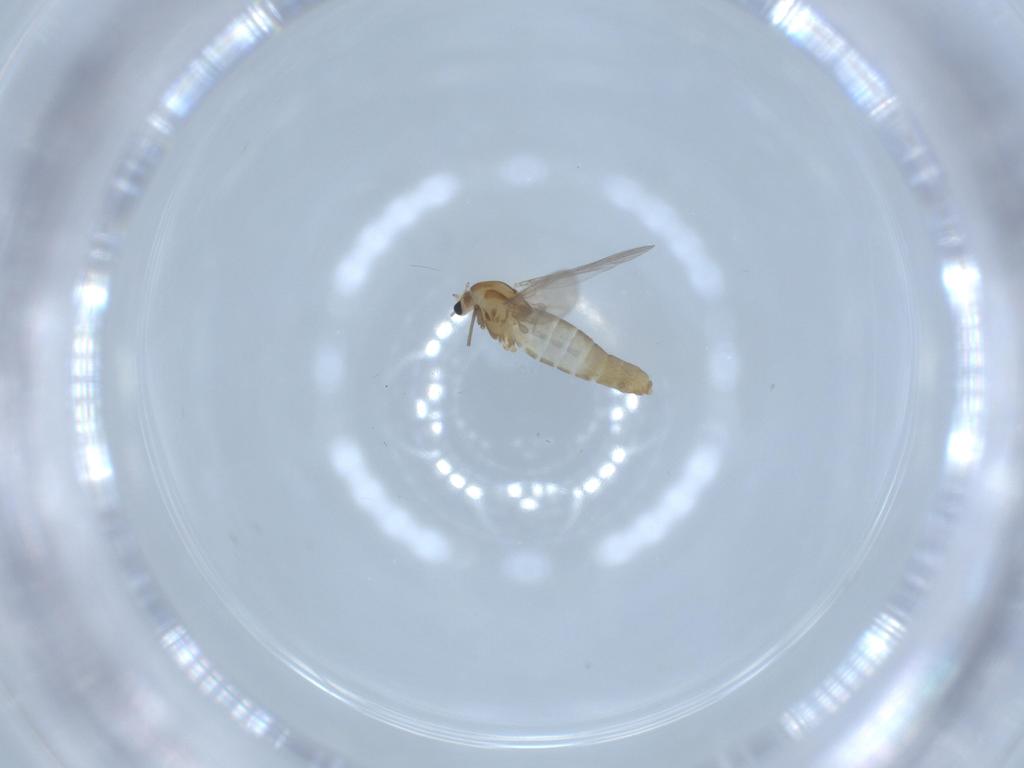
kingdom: Animalia
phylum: Arthropoda
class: Insecta
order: Diptera
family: Chironomidae
